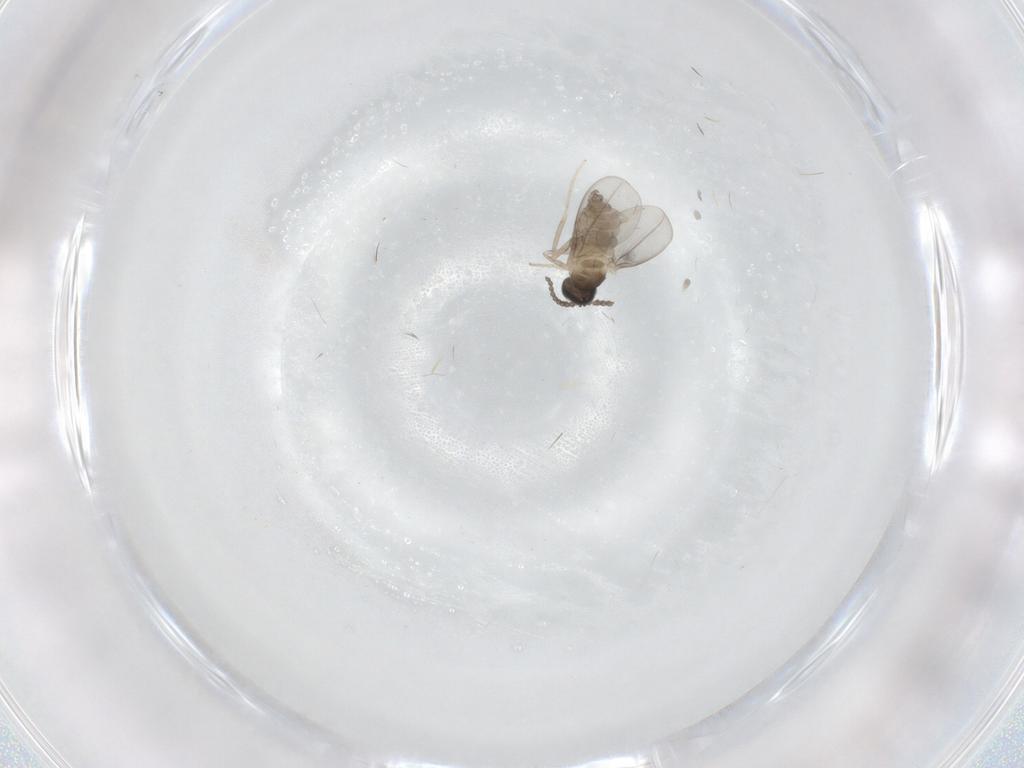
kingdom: Animalia
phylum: Arthropoda
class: Insecta
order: Diptera
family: Cecidomyiidae
